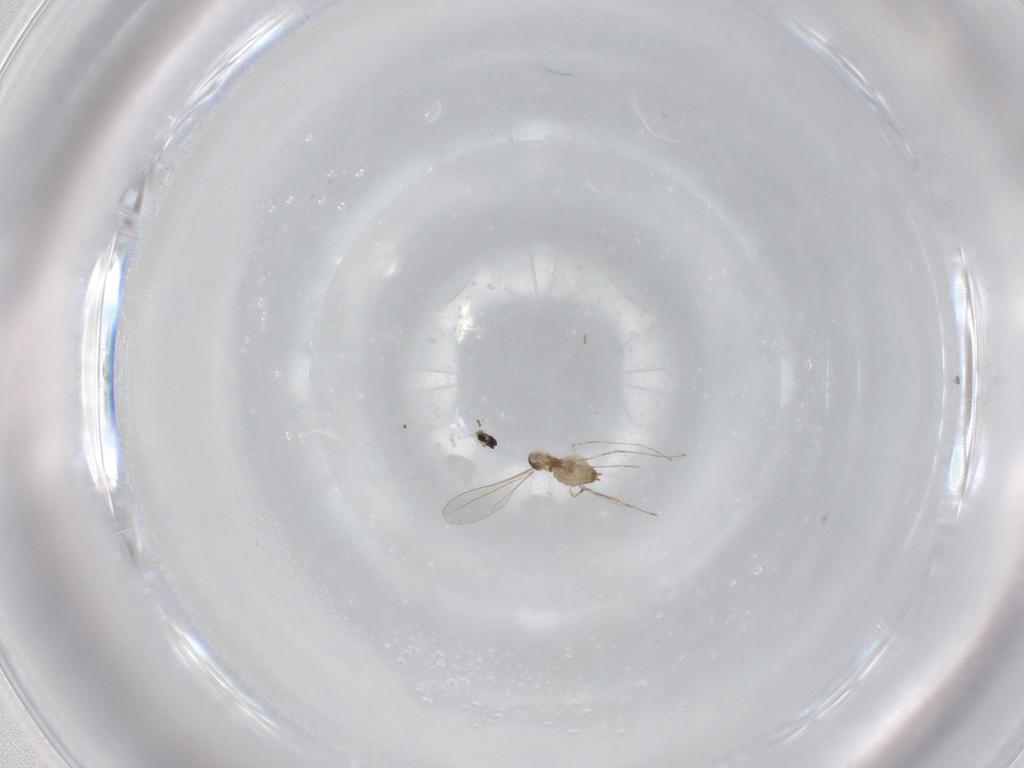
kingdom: Animalia
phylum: Arthropoda
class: Insecta
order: Diptera
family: Cecidomyiidae
